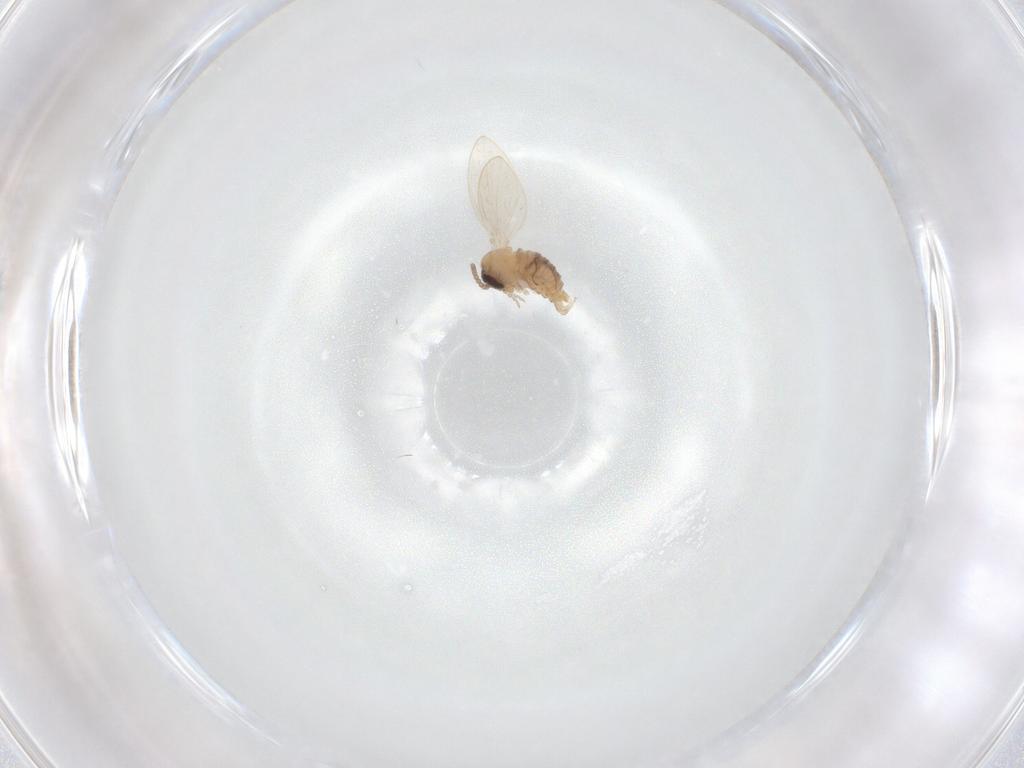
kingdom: Animalia
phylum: Arthropoda
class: Insecta
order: Diptera
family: Psychodidae
